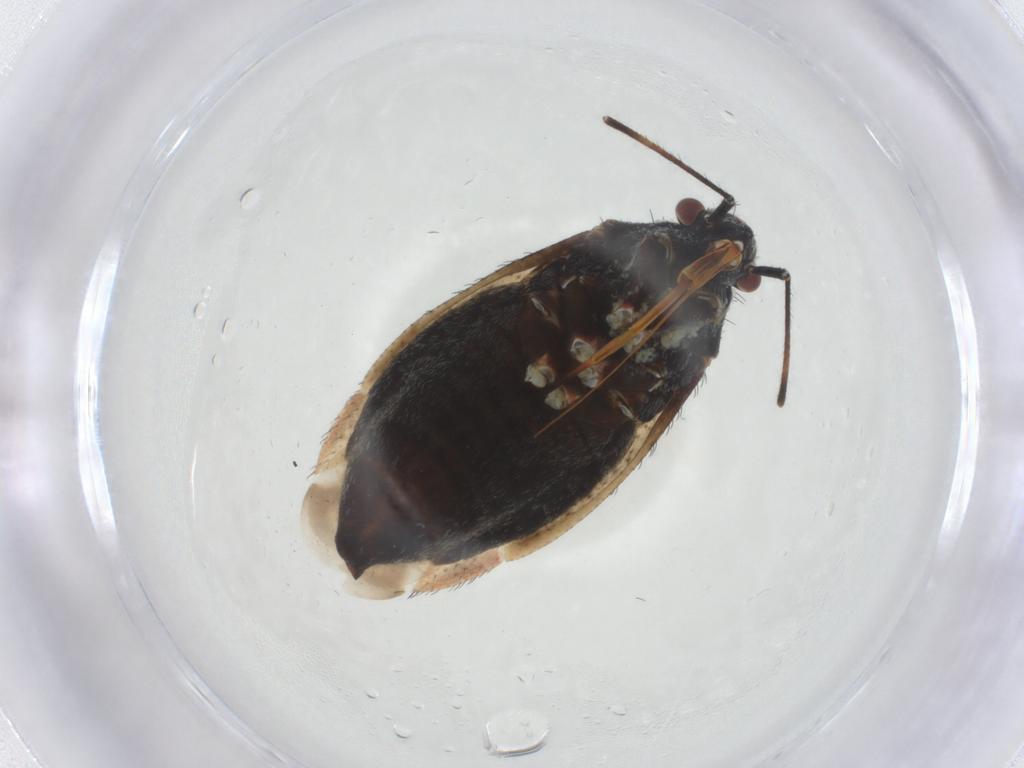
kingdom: Animalia
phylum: Arthropoda
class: Insecta
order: Hemiptera
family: Miridae
